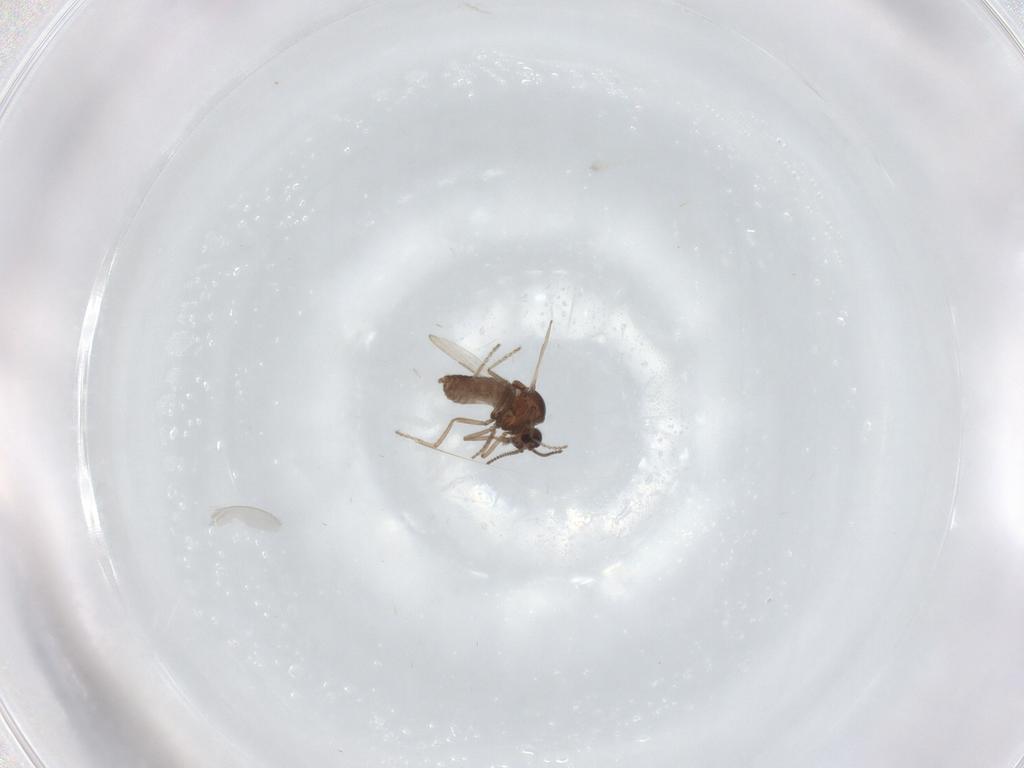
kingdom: Animalia
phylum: Arthropoda
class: Insecta
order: Diptera
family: Ceratopogonidae
